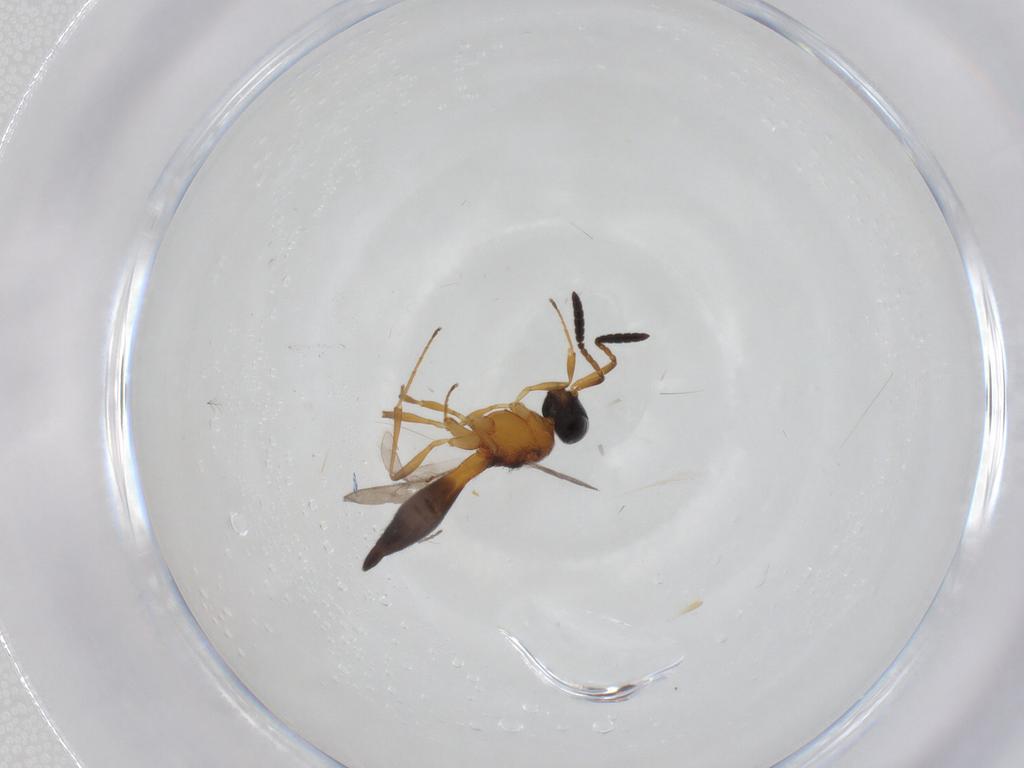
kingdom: Animalia
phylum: Arthropoda
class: Insecta
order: Hymenoptera
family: Scelionidae
